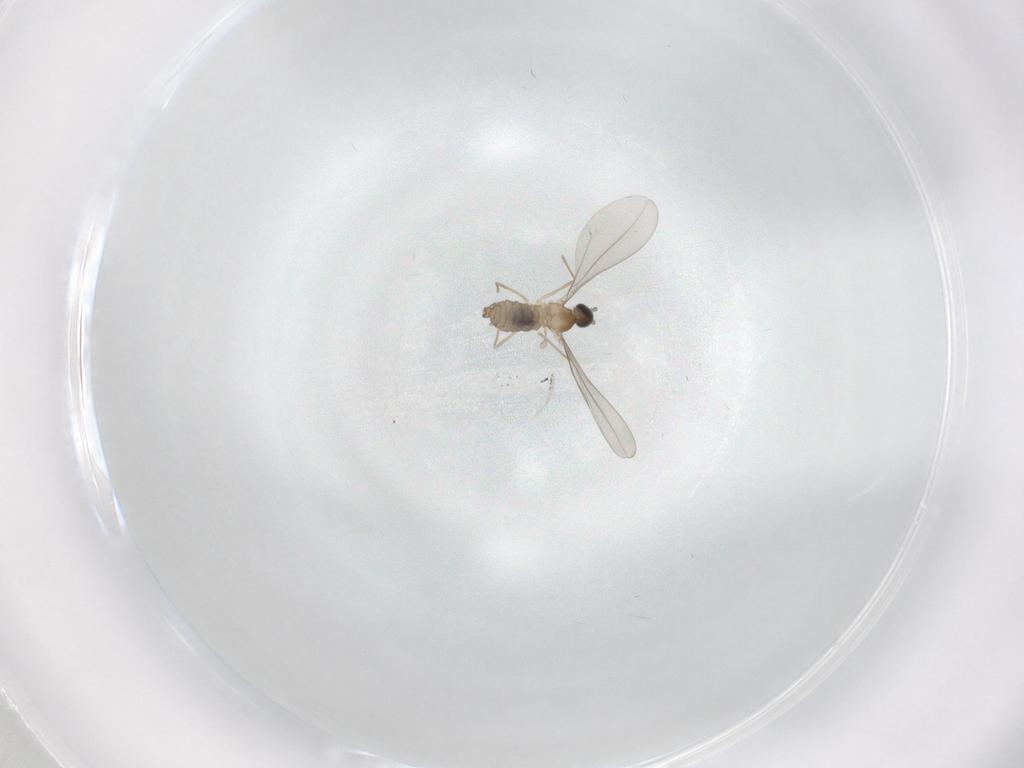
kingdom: Animalia
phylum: Arthropoda
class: Insecta
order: Diptera
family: Cecidomyiidae
